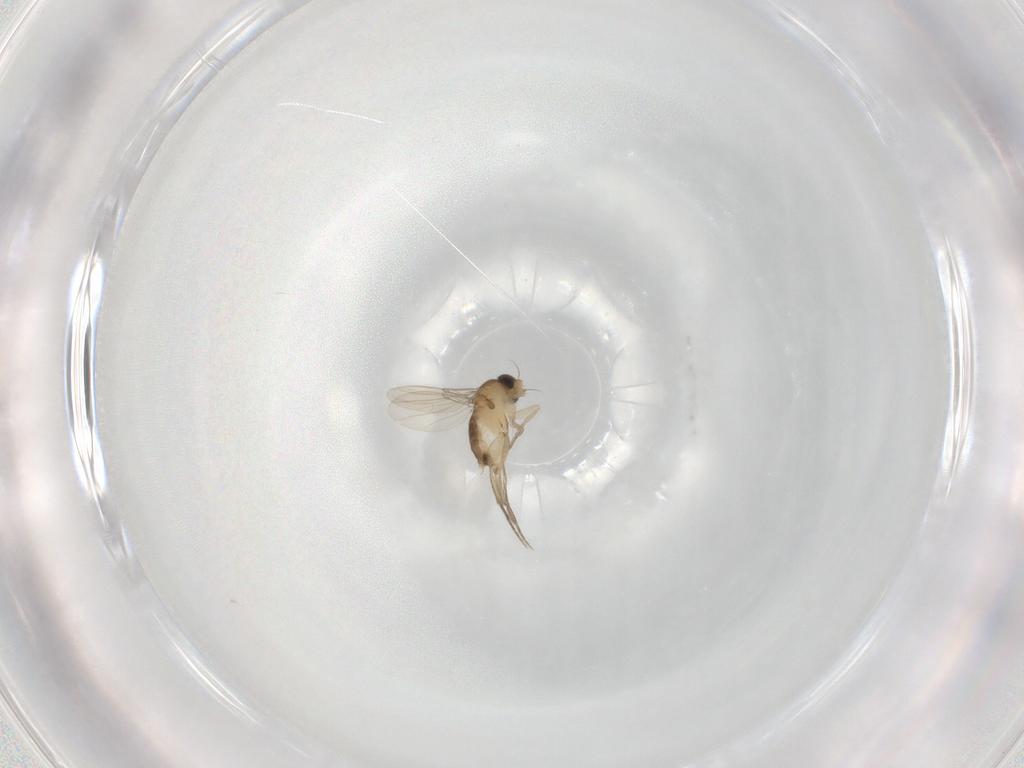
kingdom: Animalia
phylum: Arthropoda
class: Insecta
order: Diptera
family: Phoridae
